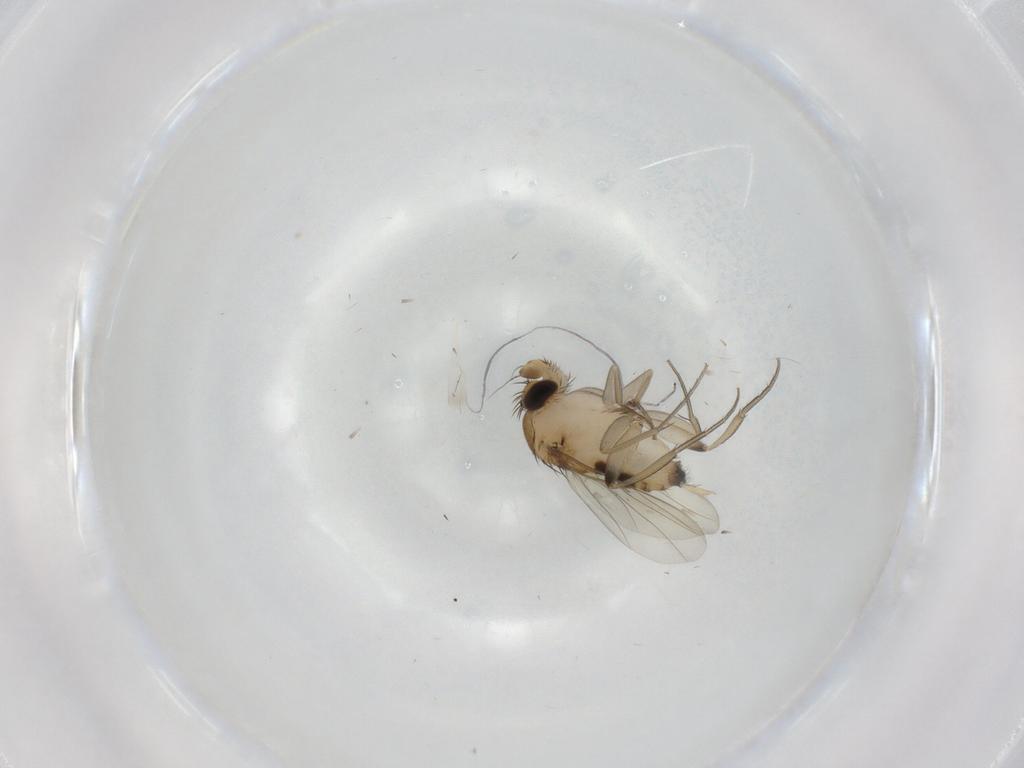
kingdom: Animalia
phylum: Arthropoda
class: Insecta
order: Diptera
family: Phoridae
